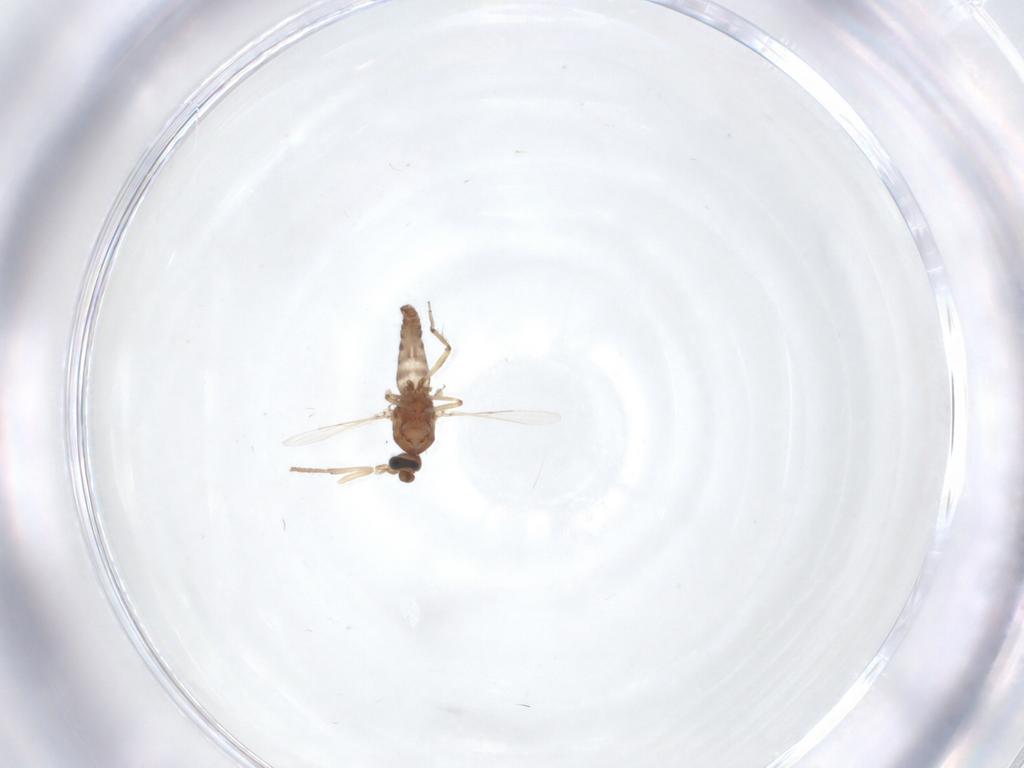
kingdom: Animalia
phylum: Arthropoda
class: Insecta
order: Diptera
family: Ceratopogonidae
